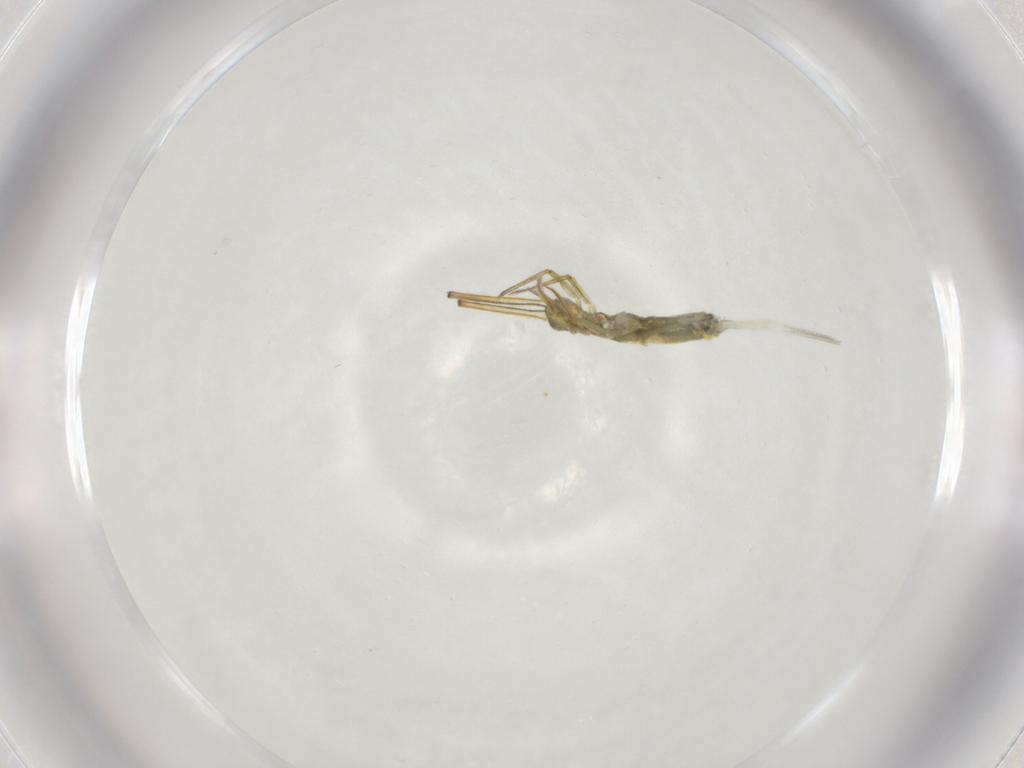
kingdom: Animalia
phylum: Arthropoda
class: Collembola
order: Entomobryomorpha
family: Entomobryidae
